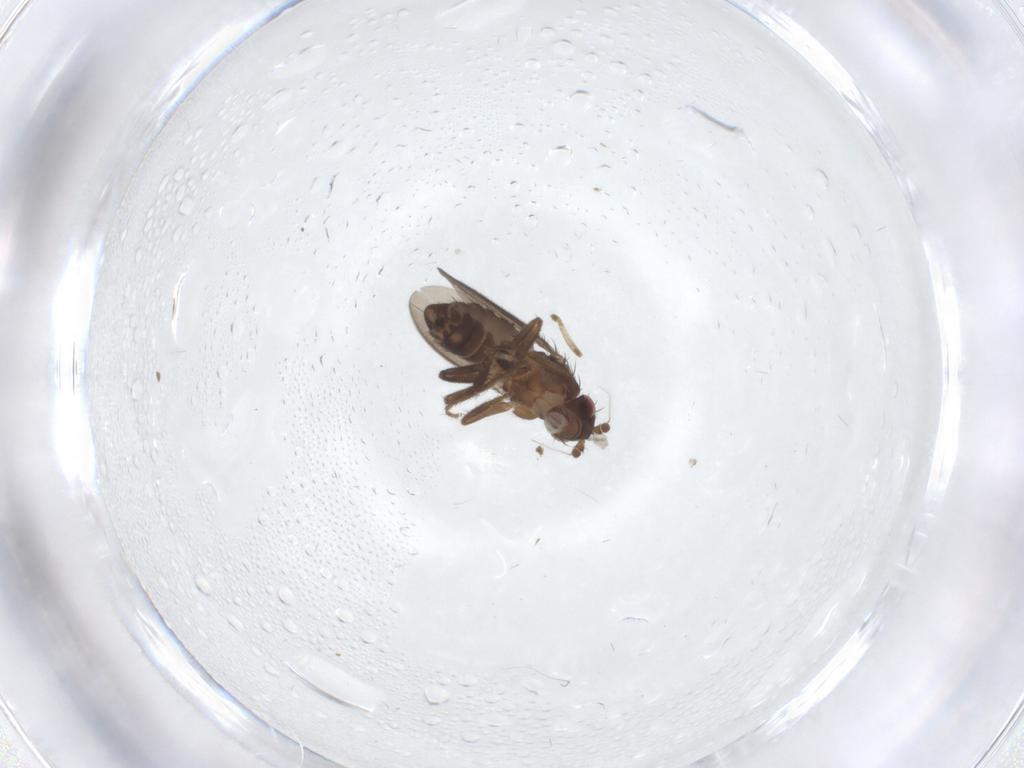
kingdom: Animalia
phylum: Arthropoda
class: Insecta
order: Diptera
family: Sphaeroceridae
